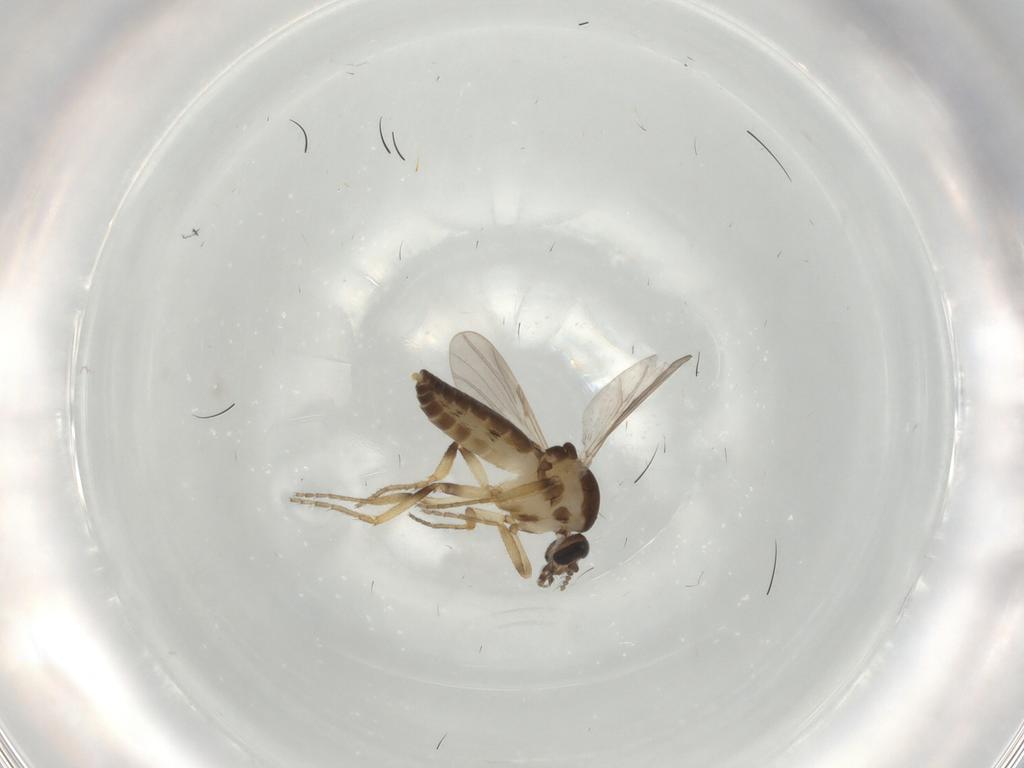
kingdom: Animalia
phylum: Arthropoda
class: Insecta
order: Diptera
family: Ceratopogonidae
